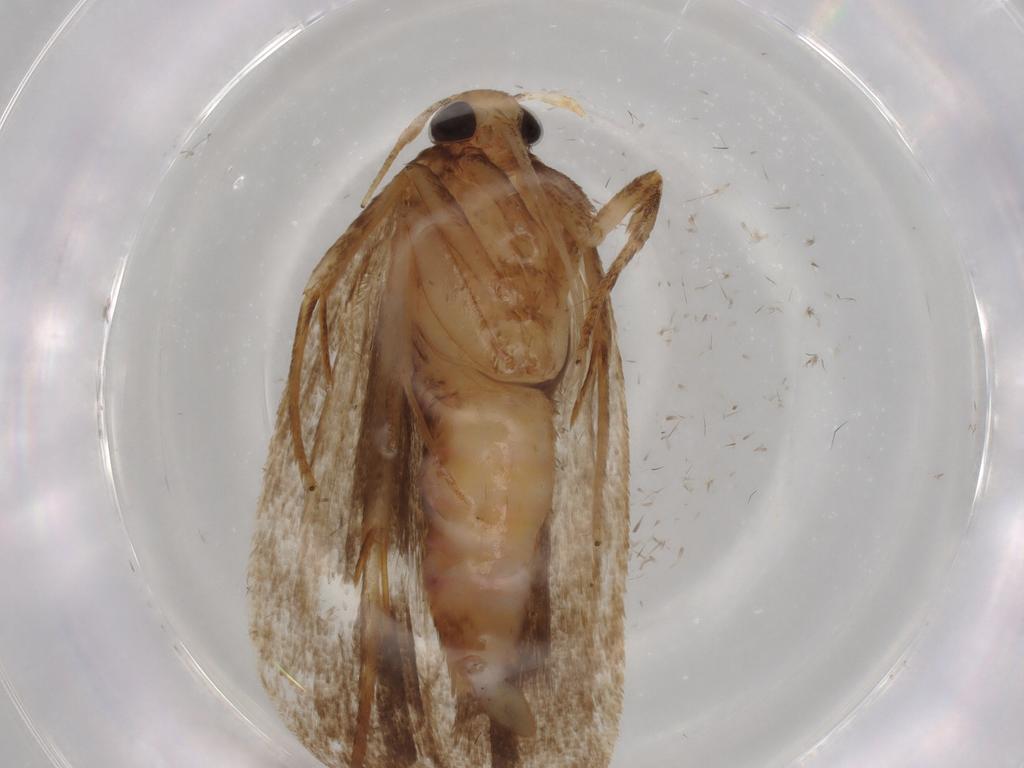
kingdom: Animalia
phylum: Arthropoda
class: Insecta
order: Lepidoptera
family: Autostichidae
